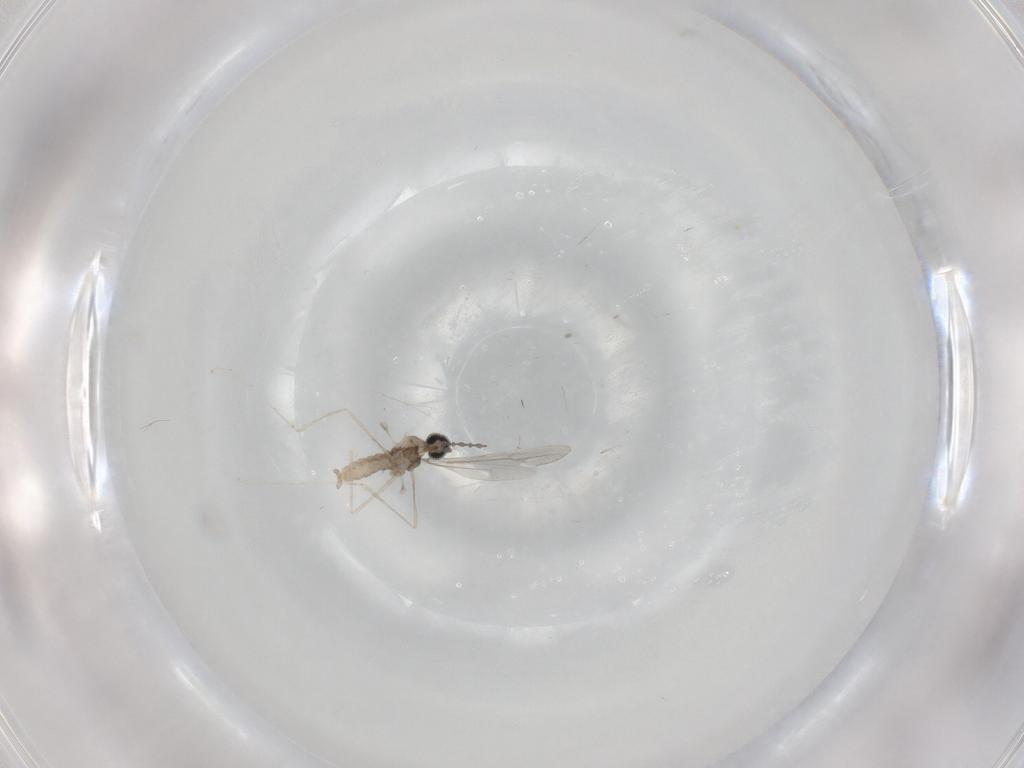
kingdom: Animalia
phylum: Arthropoda
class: Insecta
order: Diptera
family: Cecidomyiidae
